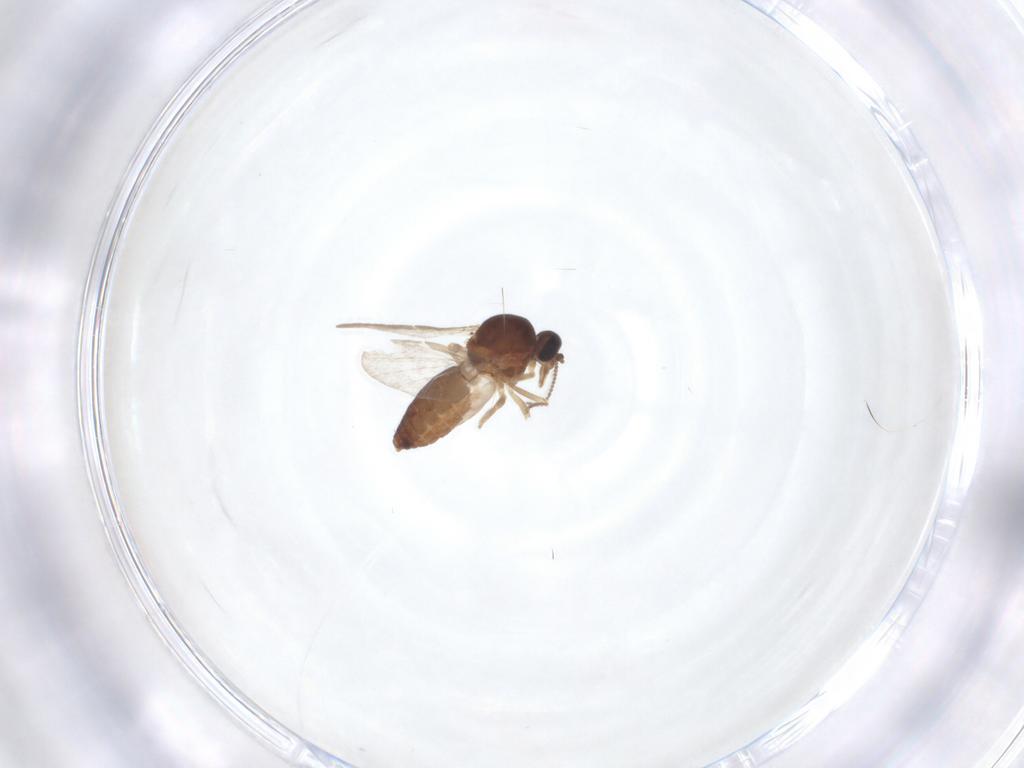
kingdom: Animalia
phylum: Arthropoda
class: Insecta
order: Diptera
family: Ceratopogonidae
